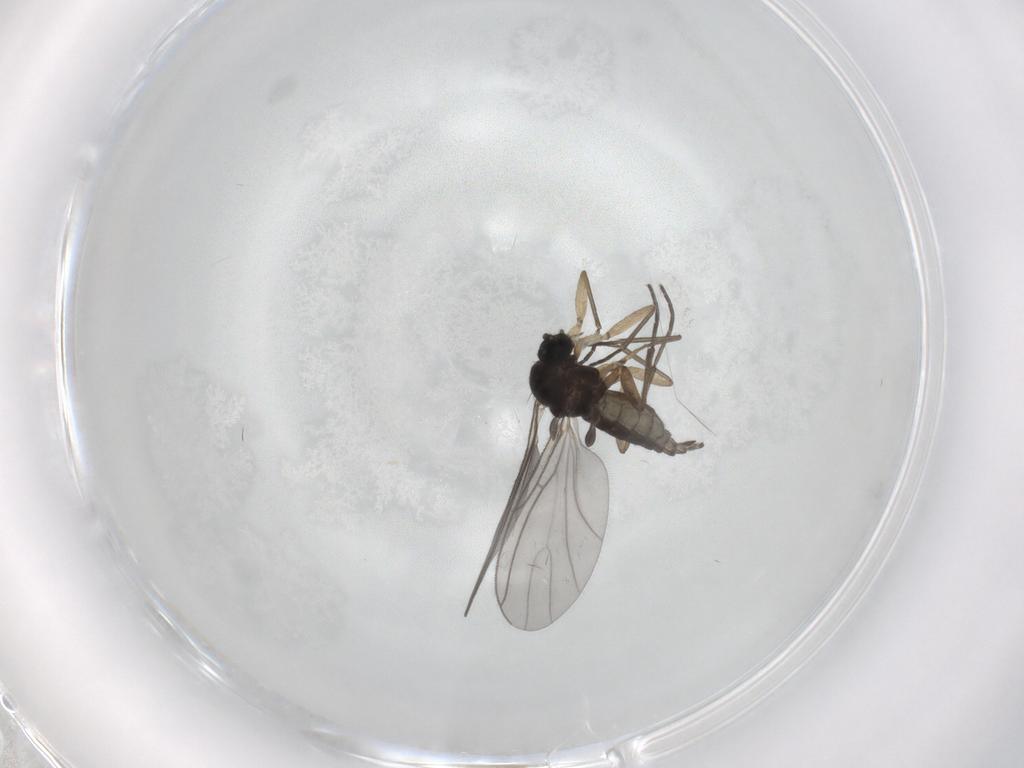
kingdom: Animalia
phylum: Arthropoda
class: Insecta
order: Diptera
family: Sciaridae
